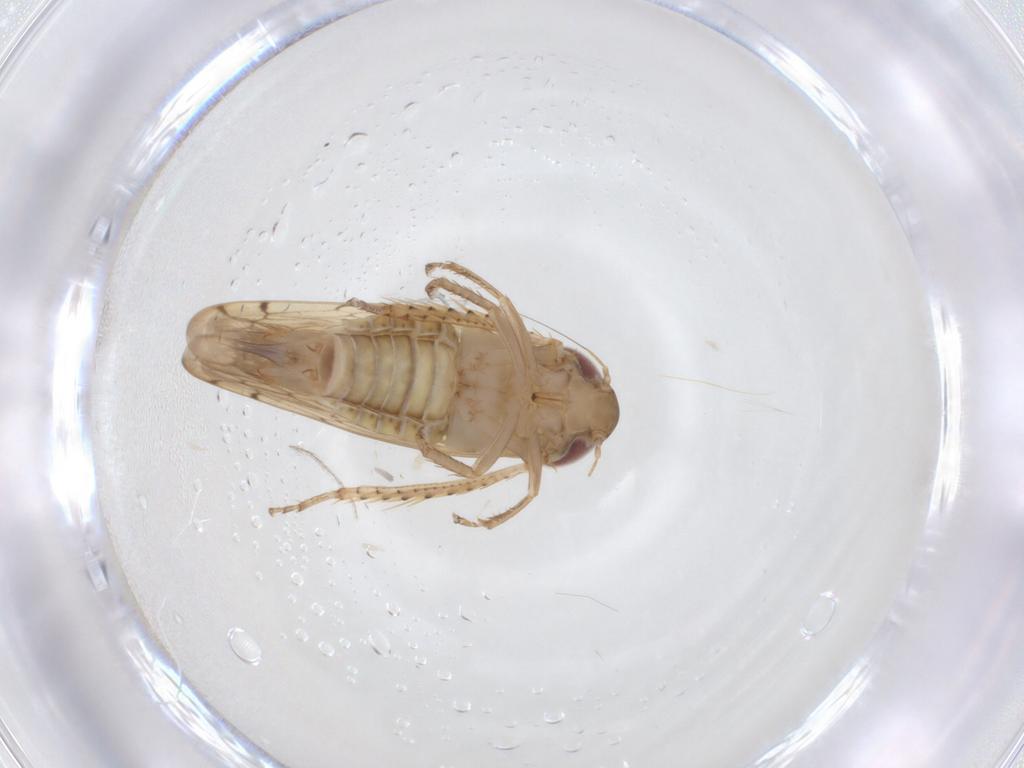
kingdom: Animalia
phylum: Arthropoda
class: Insecta
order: Hemiptera
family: Cicadellidae
